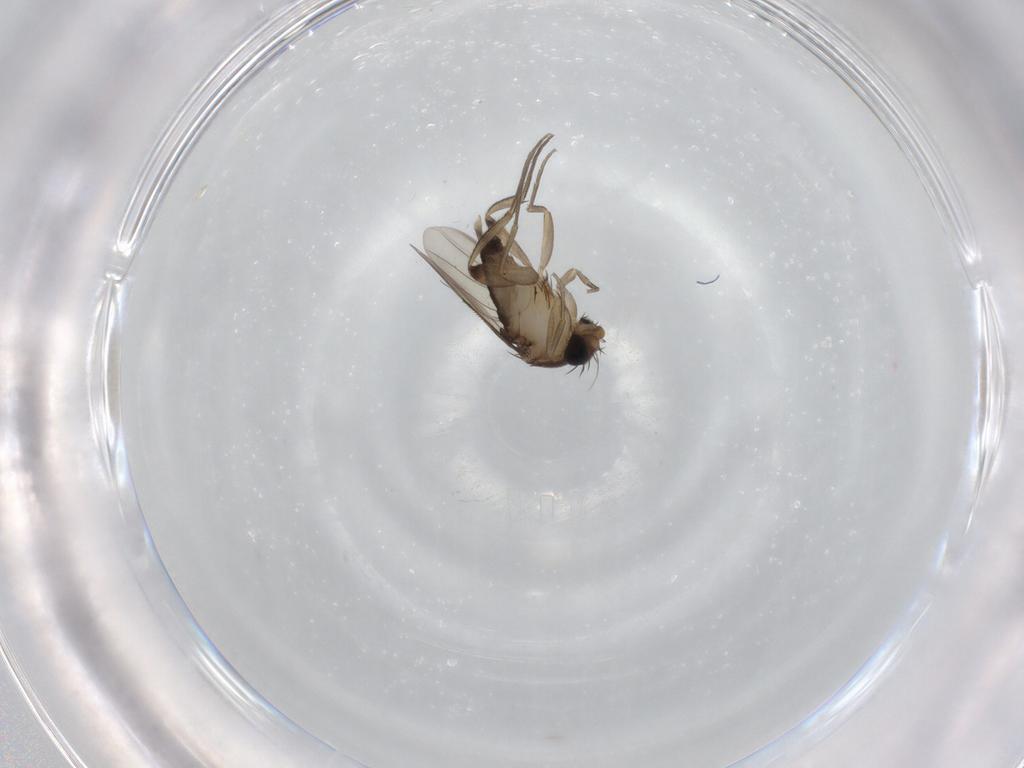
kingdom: Animalia
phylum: Arthropoda
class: Insecta
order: Diptera
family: Phoridae
